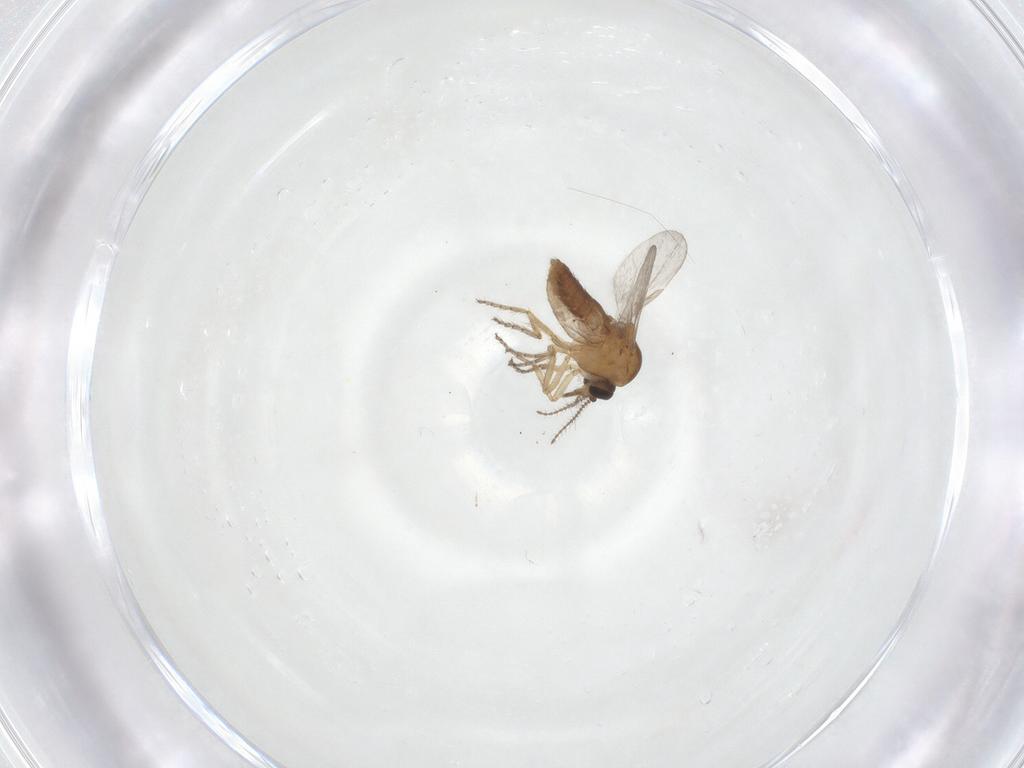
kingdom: Animalia
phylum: Arthropoda
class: Insecta
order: Diptera
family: Ceratopogonidae
